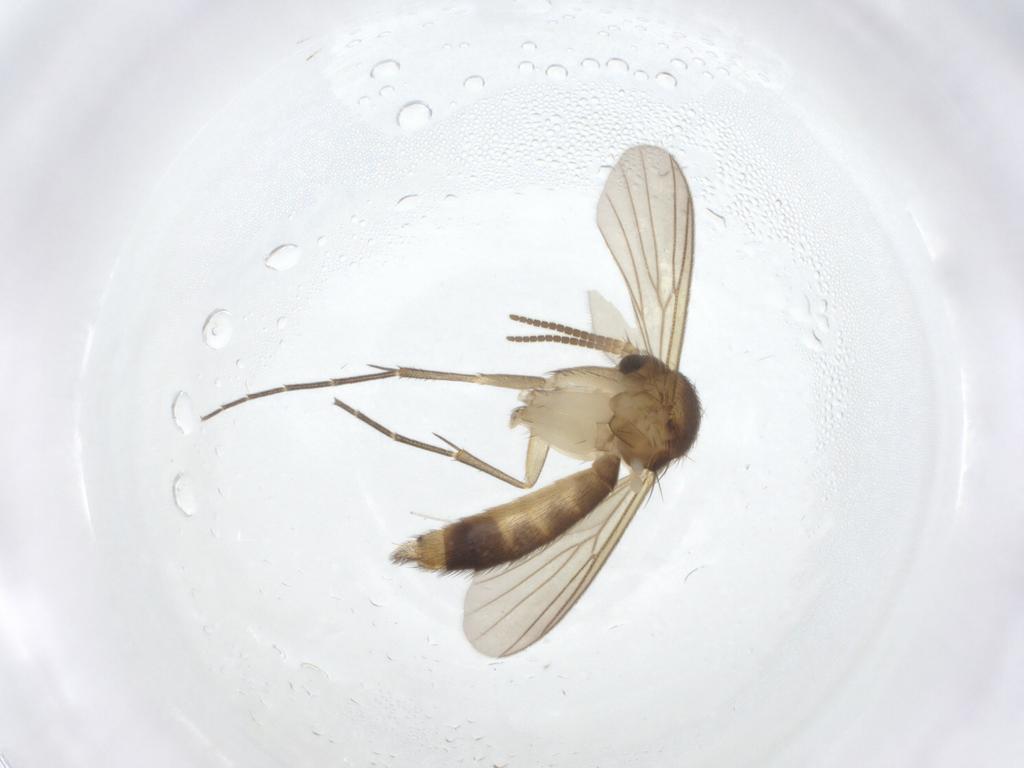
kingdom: Animalia
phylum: Arthropoda
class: Insecta
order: Diptera
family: Mycetophilidae
